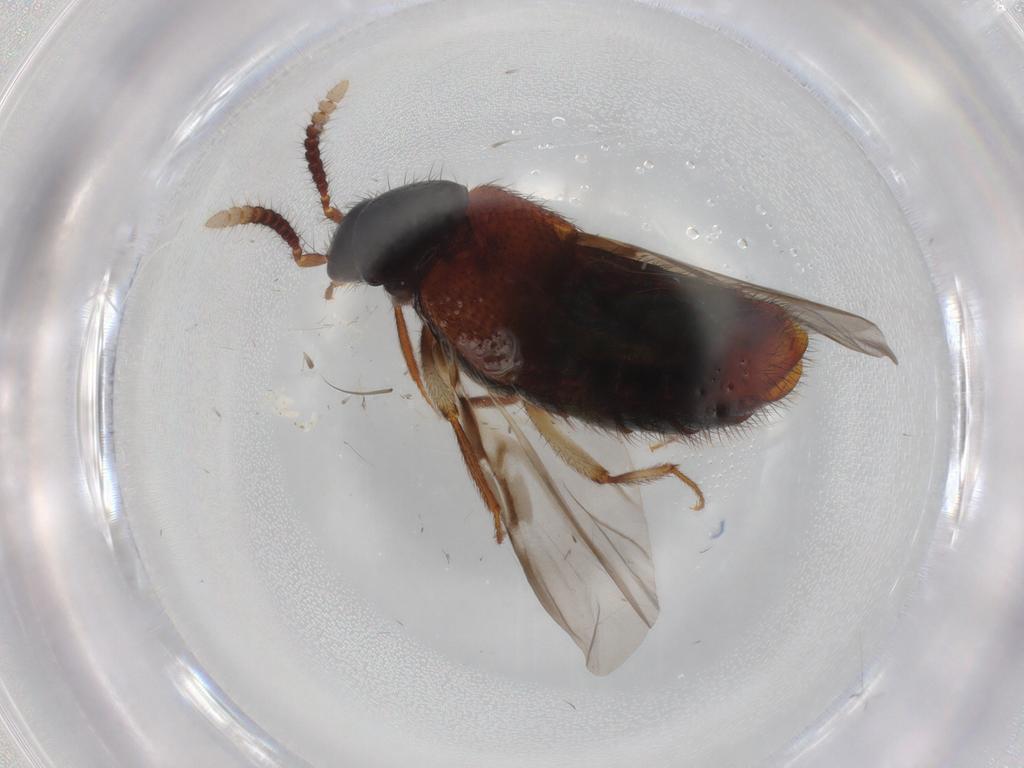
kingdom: Animalia
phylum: Arthropoda
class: Insecta
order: Coleoptera
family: Staphylinidae
